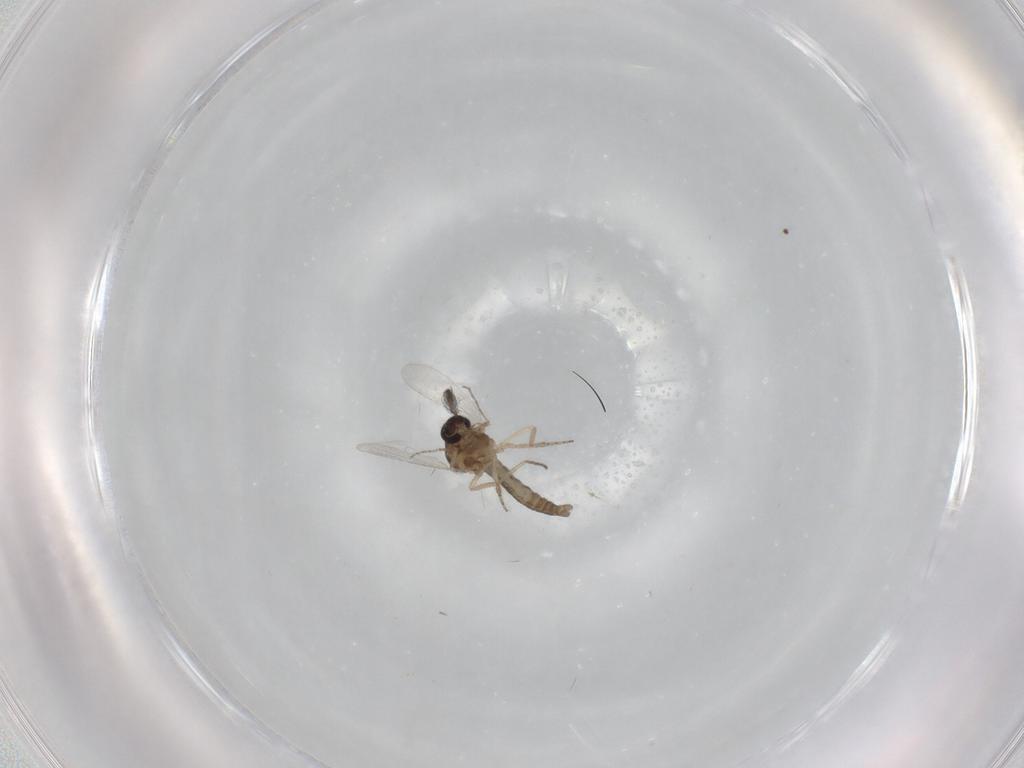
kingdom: Animalia
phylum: Arthropoda
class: Insecta
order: Diptera
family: Ceratopogonidae
